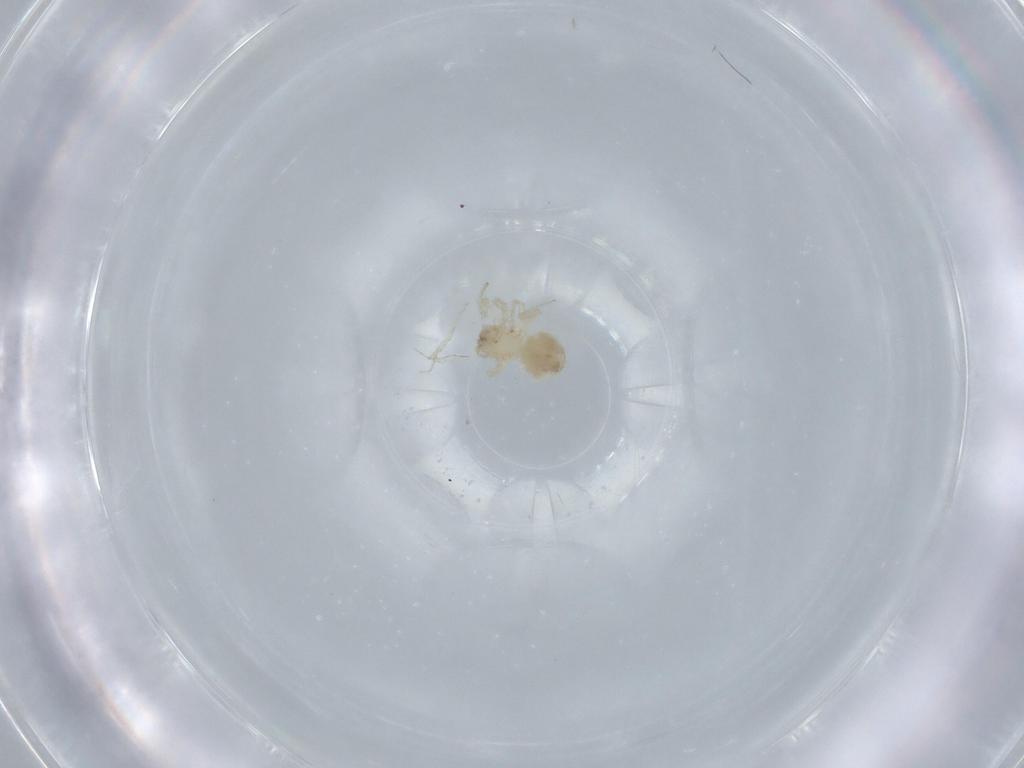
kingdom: Animalia
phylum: Arthropoda
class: Arachnida
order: Araneae
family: Oonopidae
